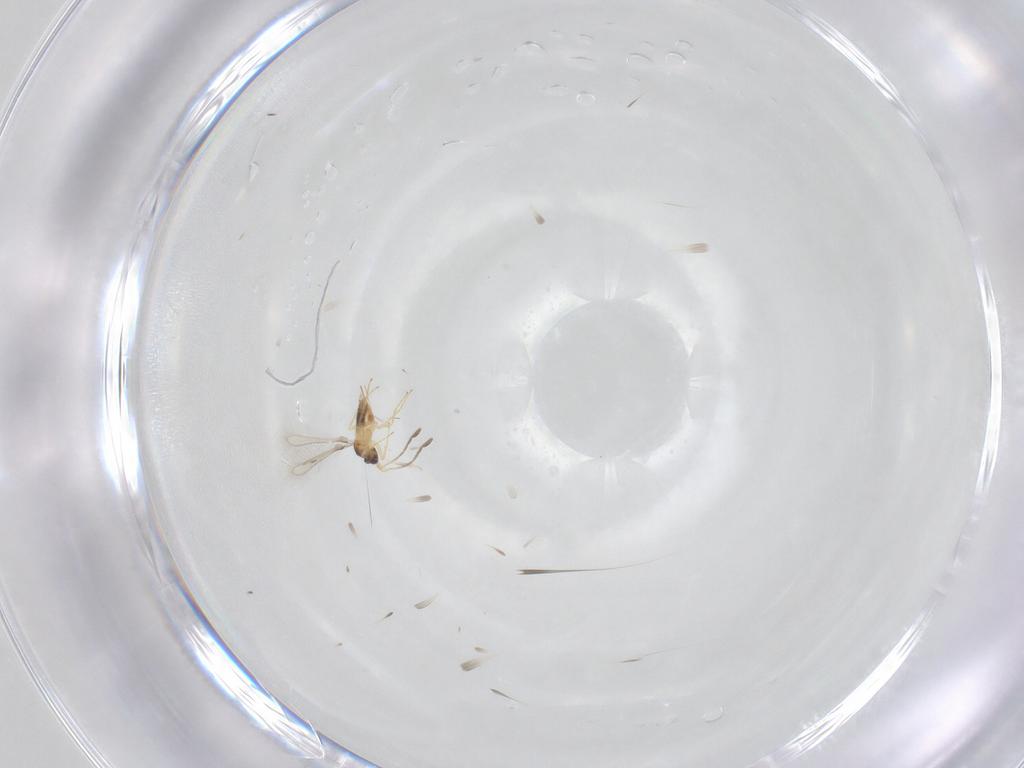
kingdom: Animalia
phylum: Arthropoda
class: Insecta
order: Hymenoptera
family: Mymaridae
